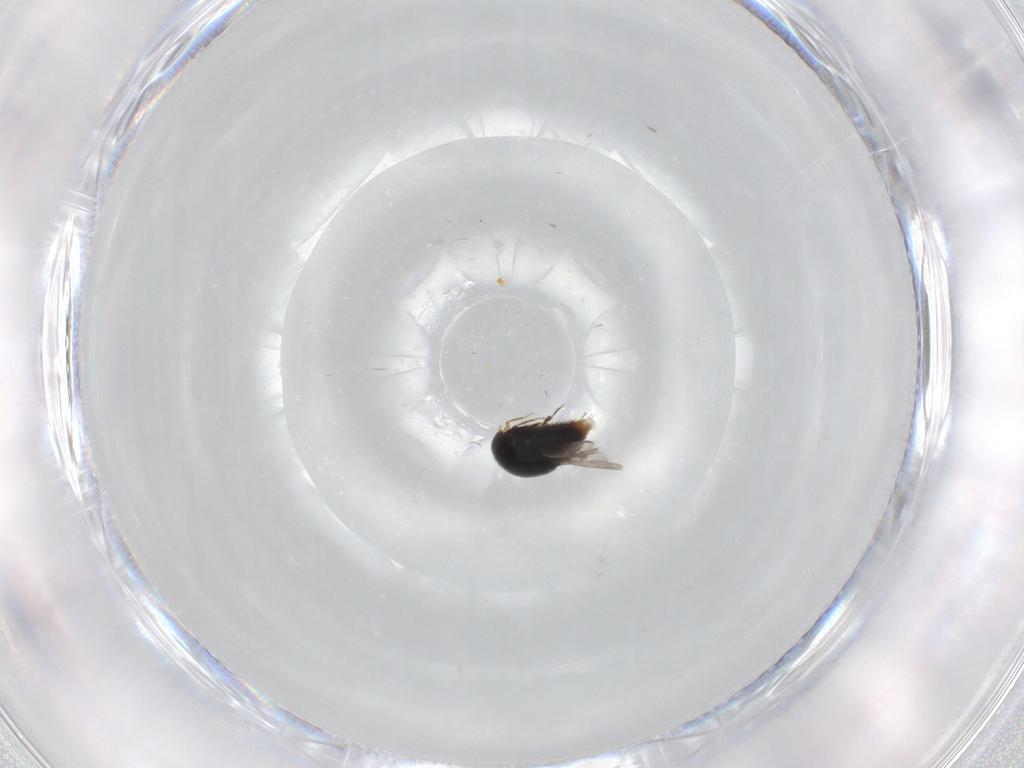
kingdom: Animalia
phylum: Arthropoda
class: Insecta
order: Coleoptera
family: Staphylinidae
